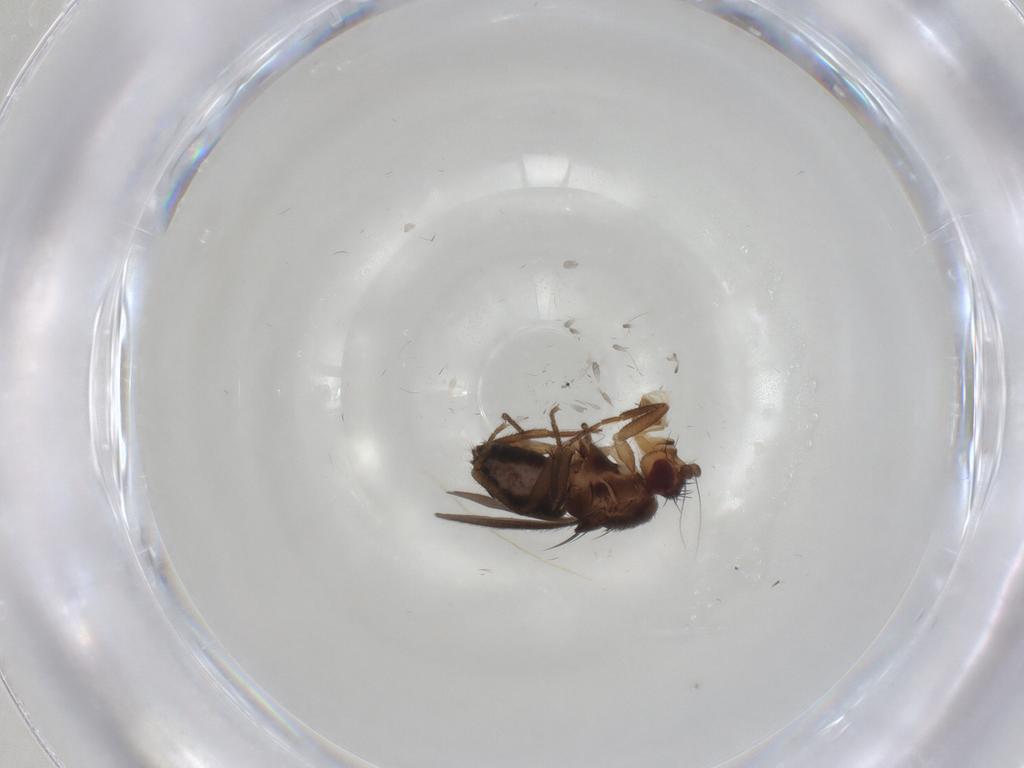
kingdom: Animalia
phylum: Arthropoda
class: Insecta
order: Diptera
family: Sphaeroceridae
